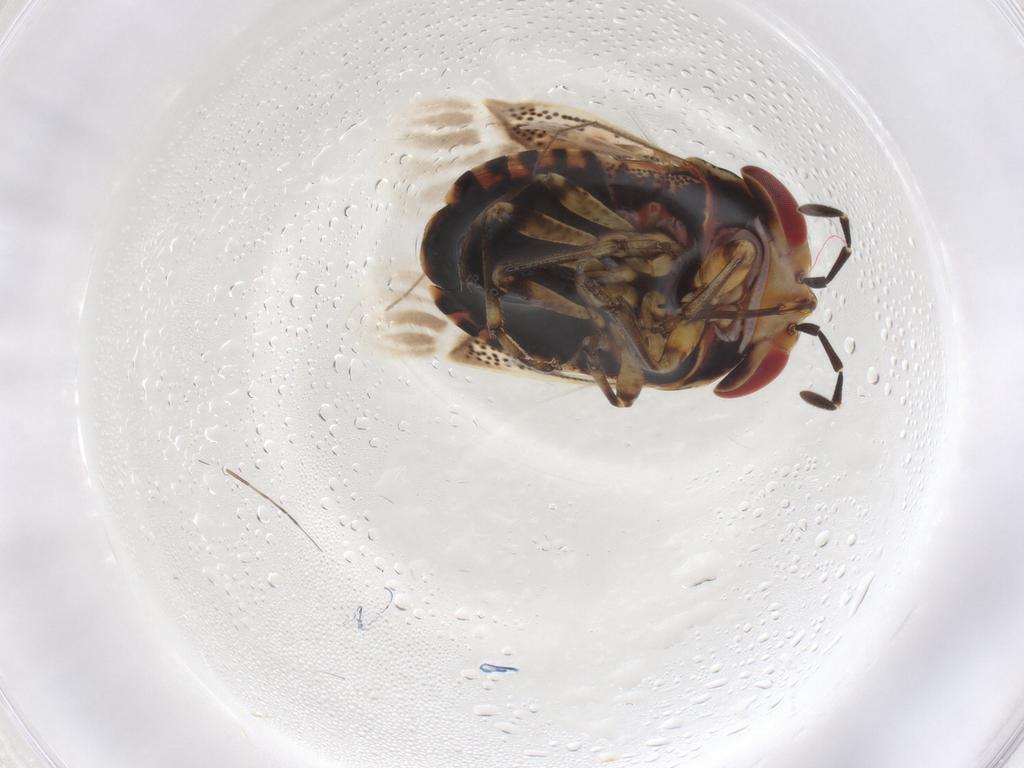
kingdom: Animalia
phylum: Arthropoda
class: Insecta
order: Hemiptera
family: Geocoridae
